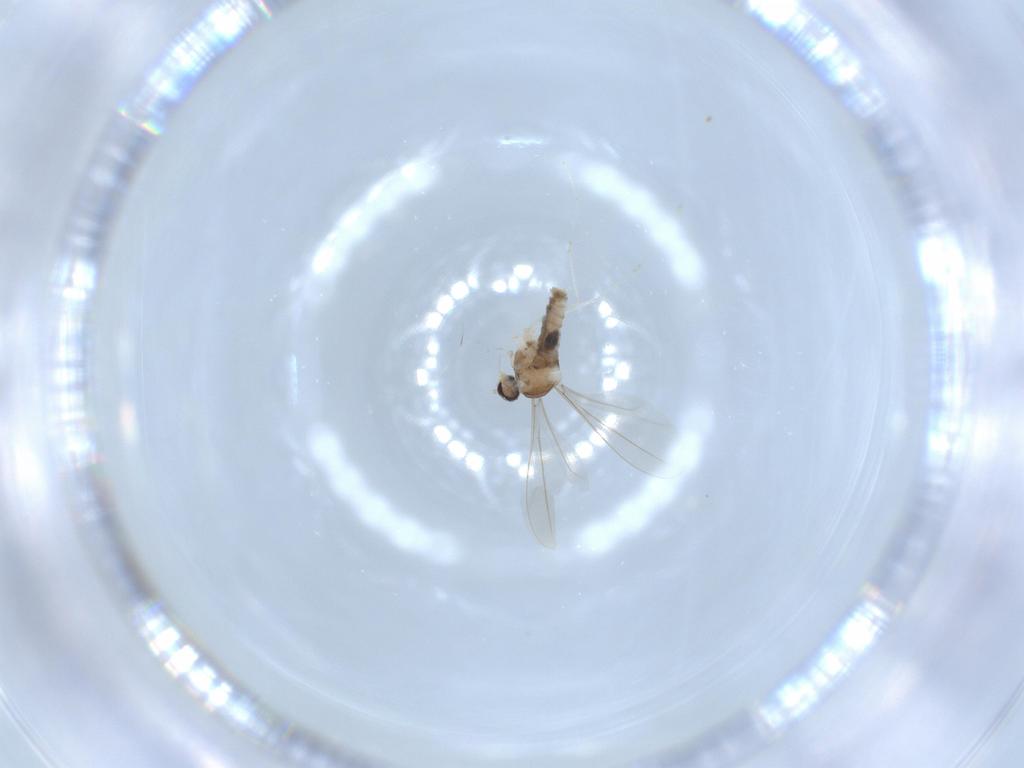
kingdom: Animalia
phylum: Arthropoda
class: Insecta
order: Diptera
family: Cecidomyiidae
